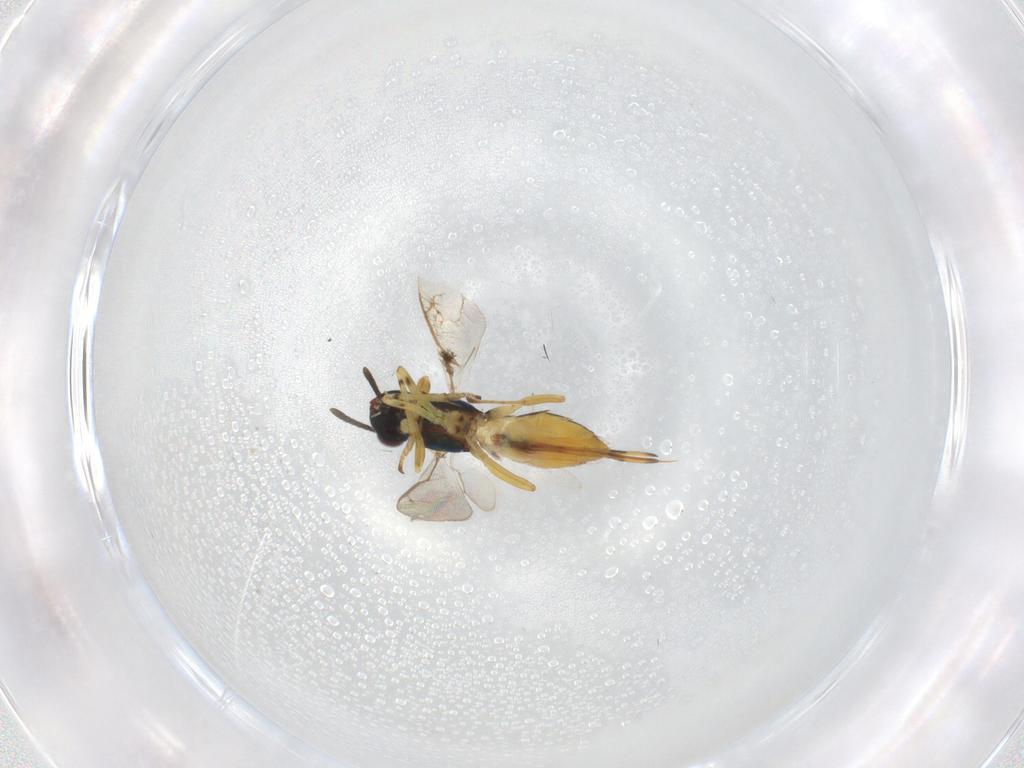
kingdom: Animalia
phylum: Arthropoda
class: Insecta
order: Hymenoptera
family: Eulophidae
